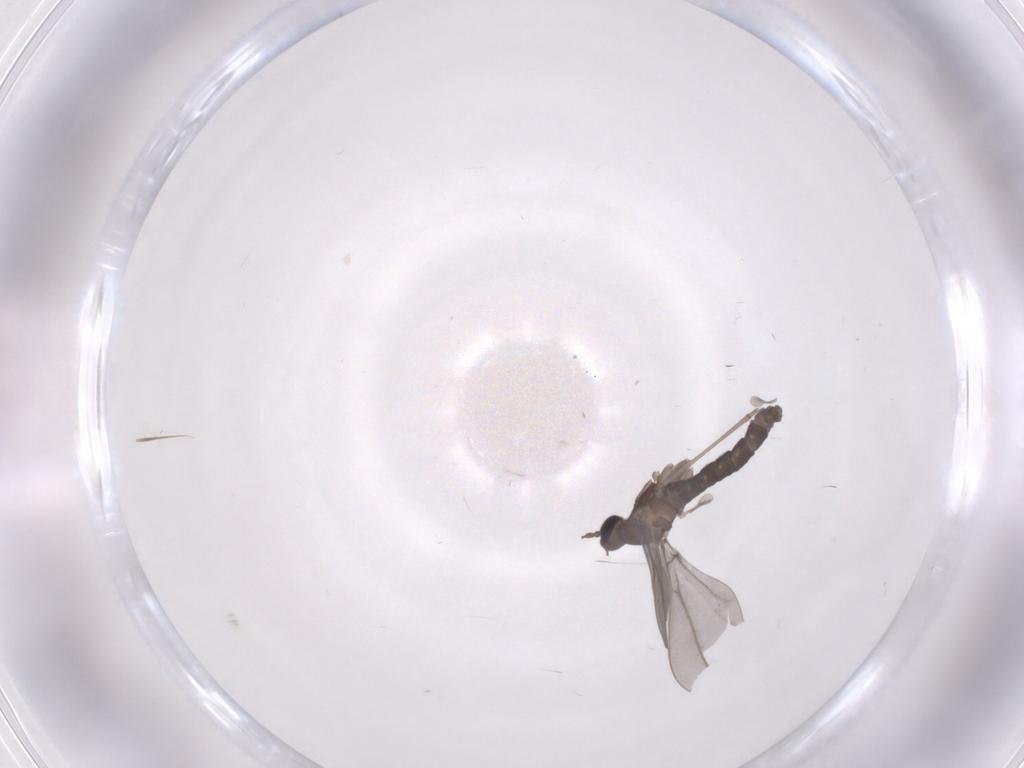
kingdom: Animalia
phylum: Arthropoda
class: Insecta
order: Diptera
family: Cecidomyiidae
